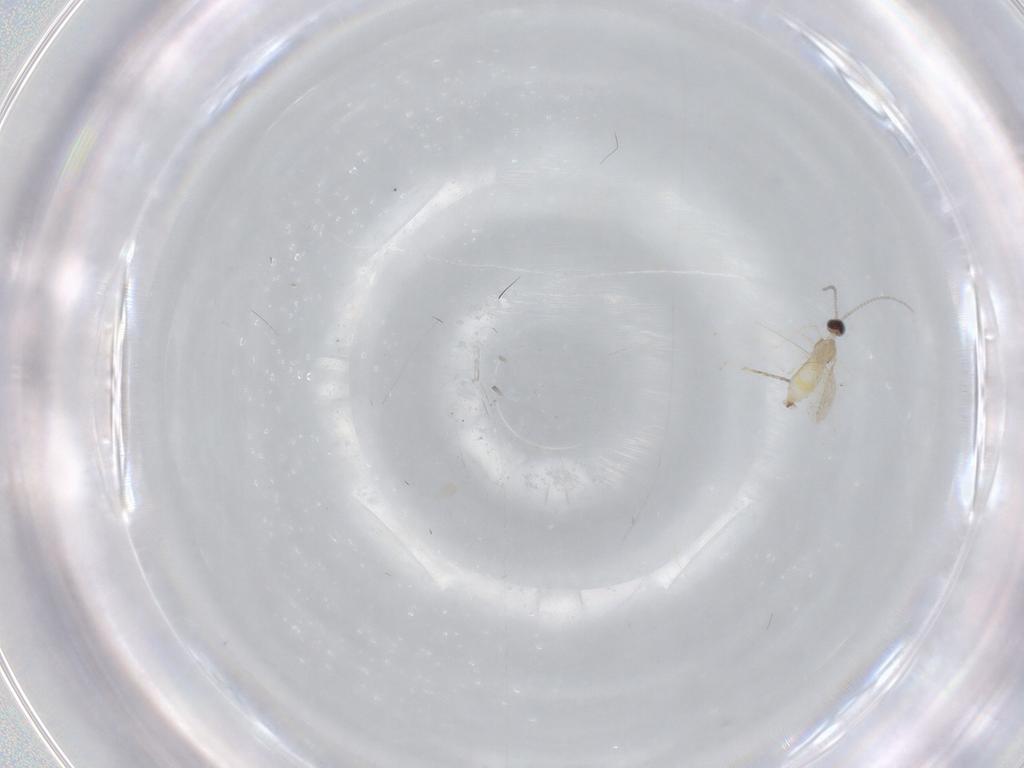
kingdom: Animalia
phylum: Arthropoda
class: Insecta
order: Diptera
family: Cecidomyiidae
